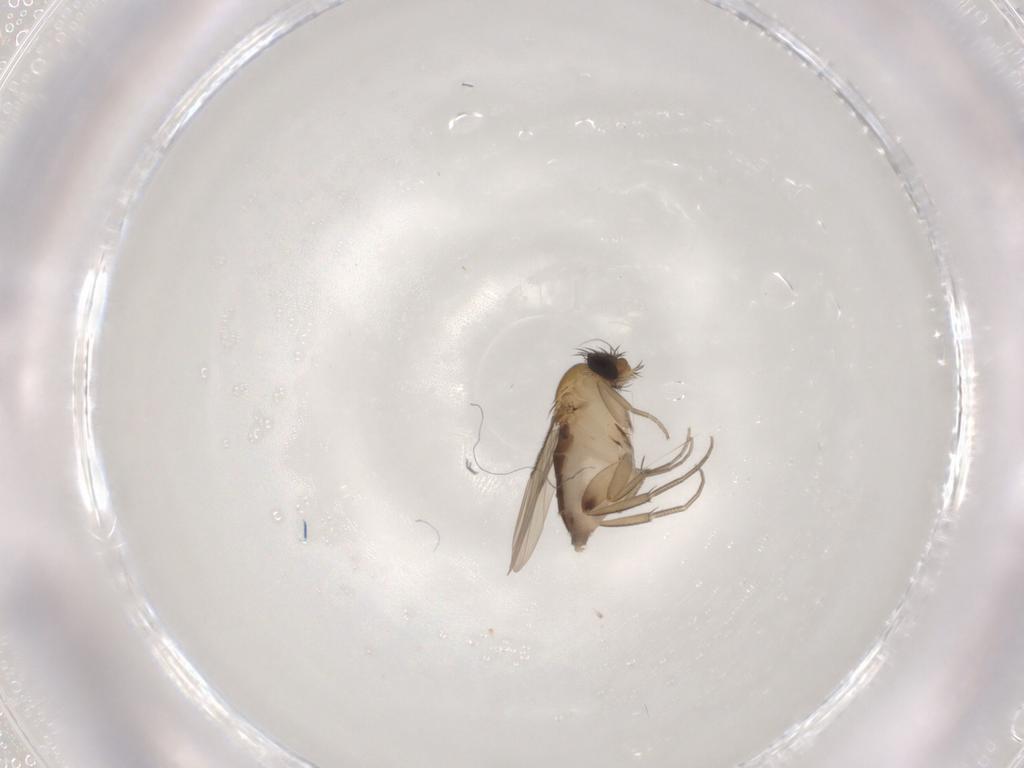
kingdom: Animalia
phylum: Arthropoda
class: Insecta
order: Diptera
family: Phoridae
